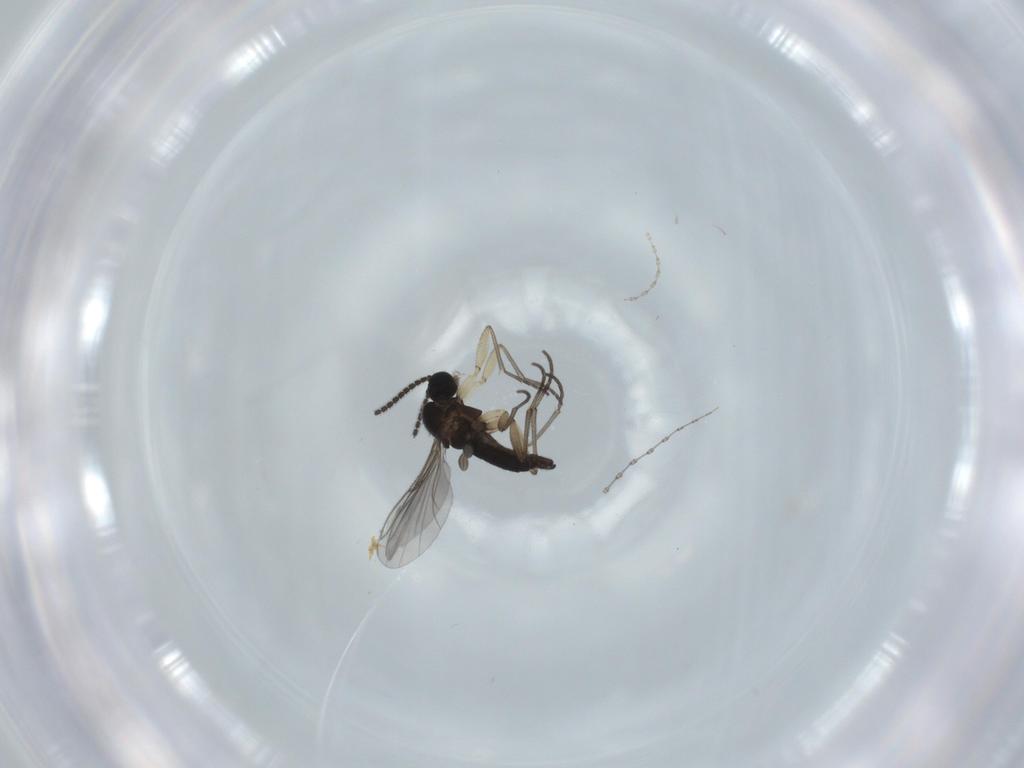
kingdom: Animalia
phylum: Arthropoda
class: Insecta
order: Diptera
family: Sciaridae
